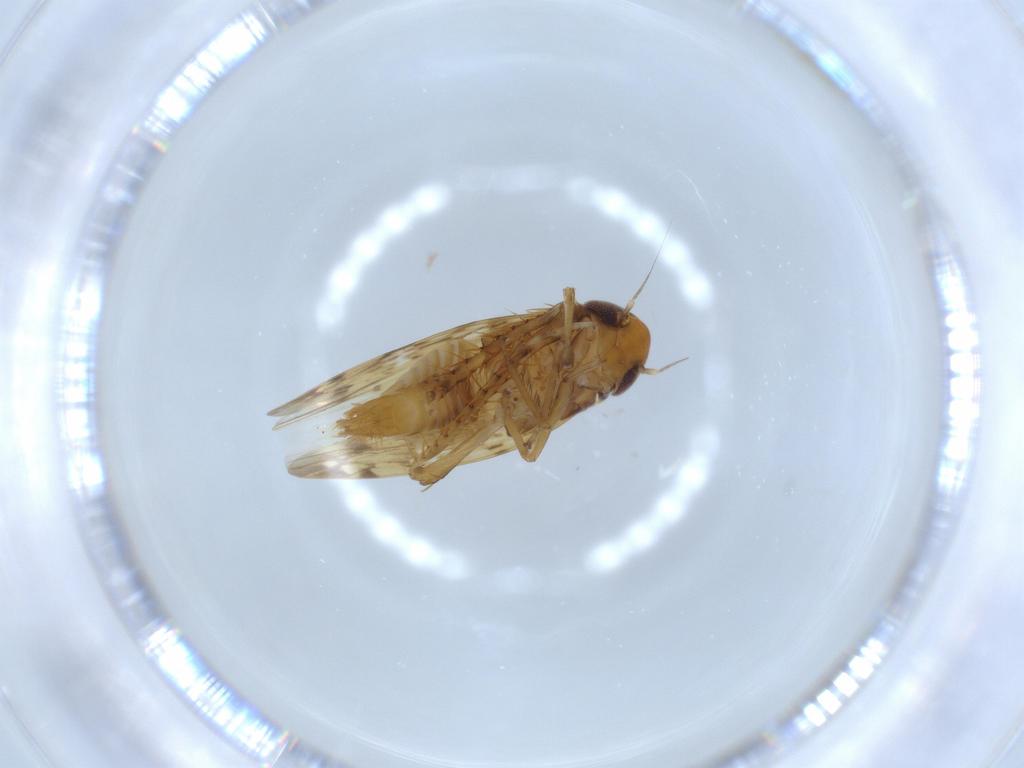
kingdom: Animalia
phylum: Arthropoda
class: Insecta
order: Hemiptera
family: Cicadellidae
